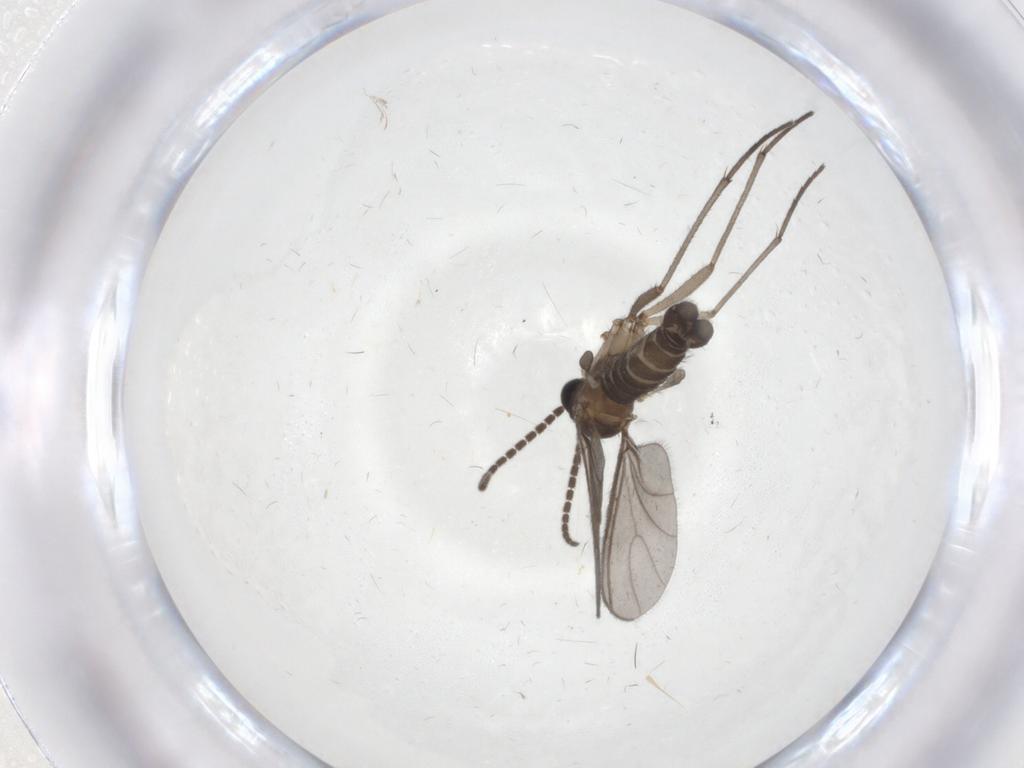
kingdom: Animalia
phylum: Arthropoda
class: Insecta
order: Diptera
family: Sciaridae
